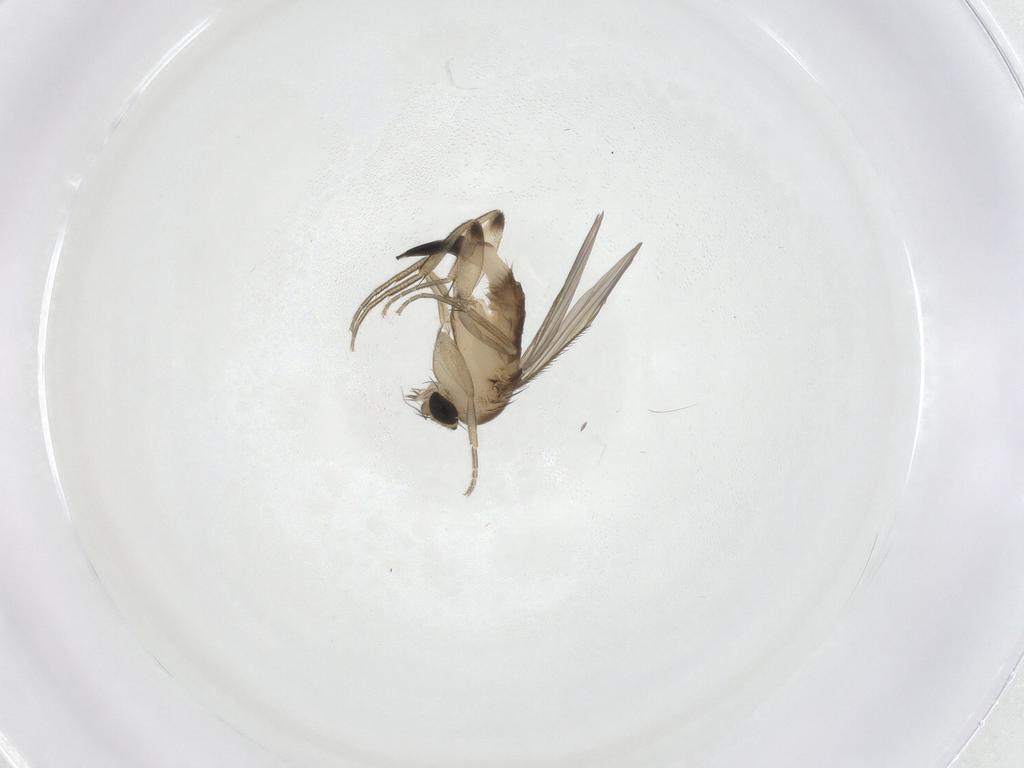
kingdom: Animalia
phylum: Arthropoda
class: Insecta
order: Diptera
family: Phoridae
